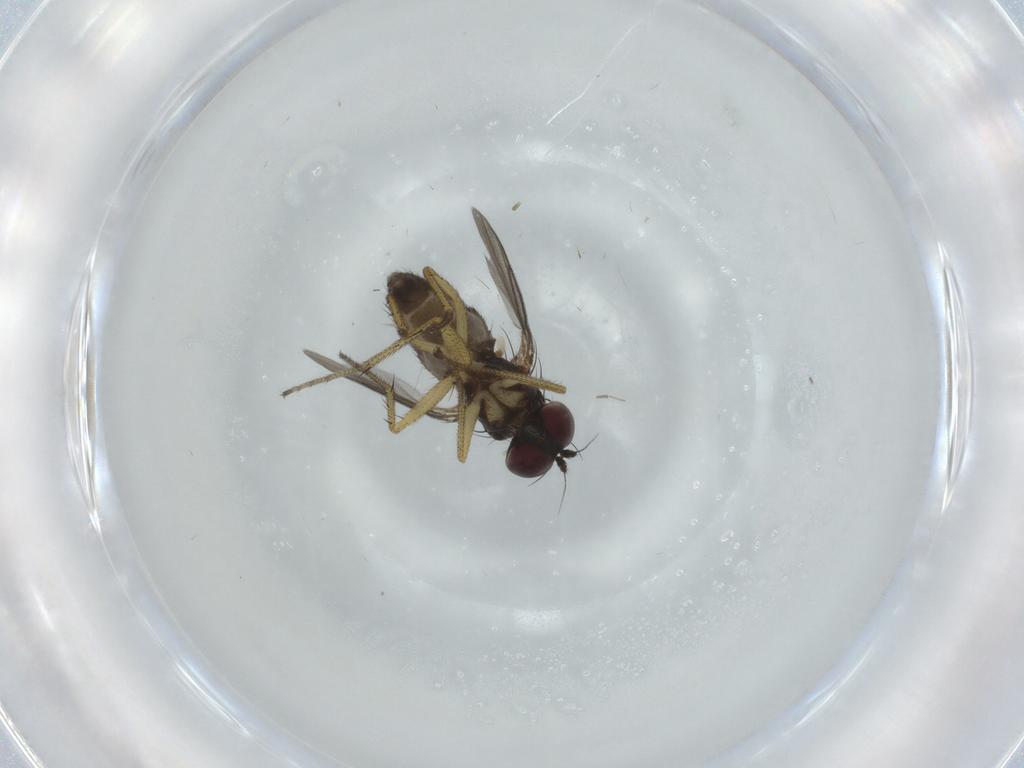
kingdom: Animalia
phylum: Arthropoda
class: Insecta
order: Diptera
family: Dolichopodidae
